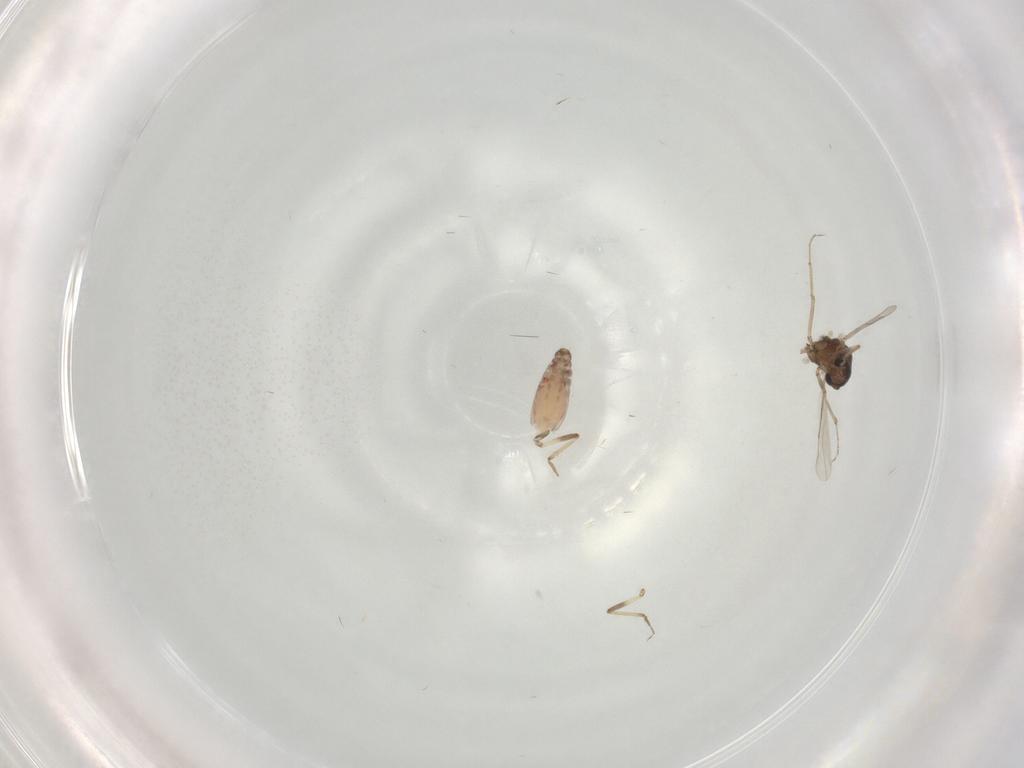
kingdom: Animalia
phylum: Arthropoda
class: Insecta
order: Diptera
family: Ceratopogonidae
